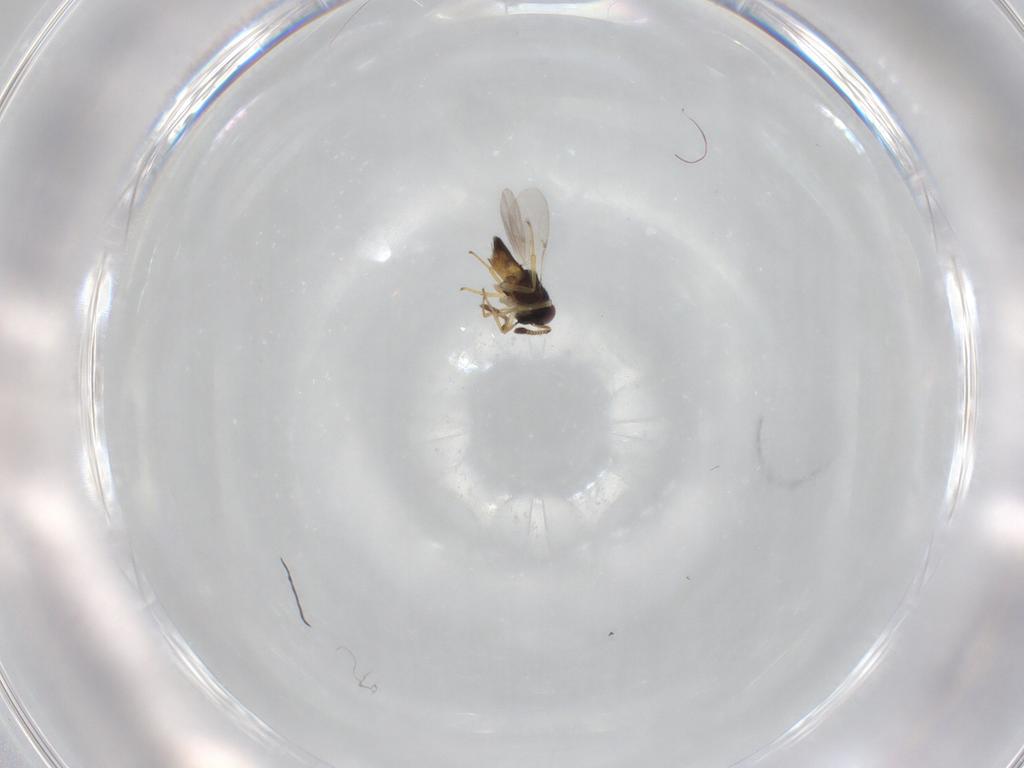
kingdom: Animalia
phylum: Arthropoda
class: Insecta
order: Hymenoptera
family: Encyrtidae
